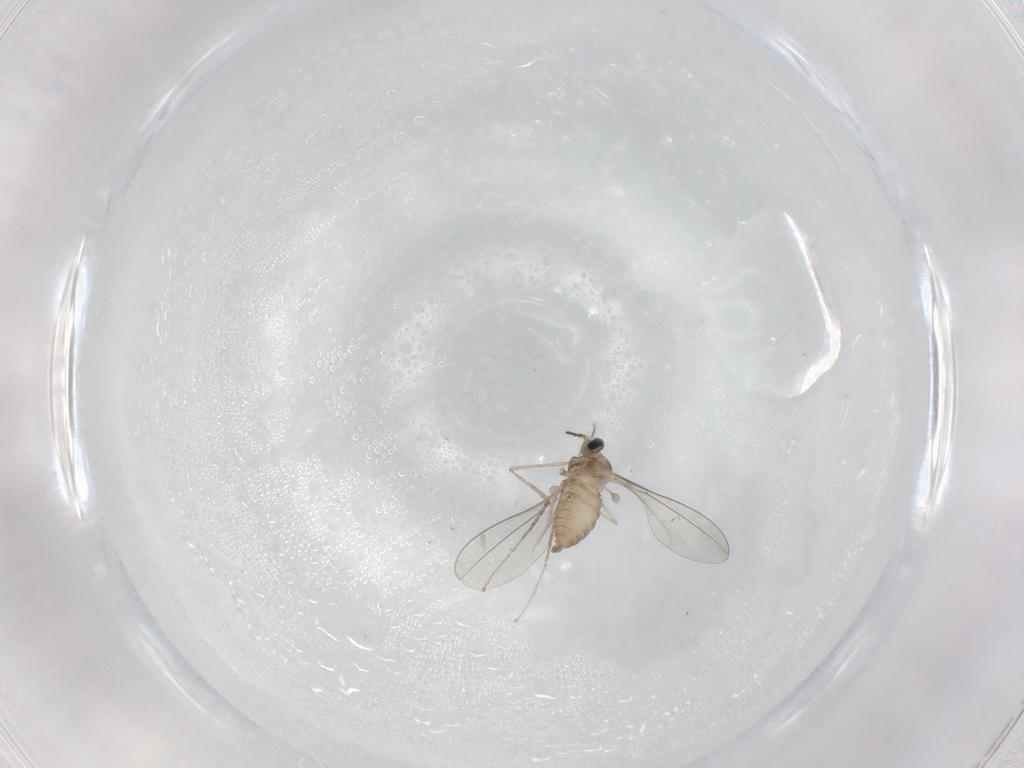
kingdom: Animalia
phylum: Arthropoda
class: Insecta
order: Diptera
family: Cecidomyiidae
